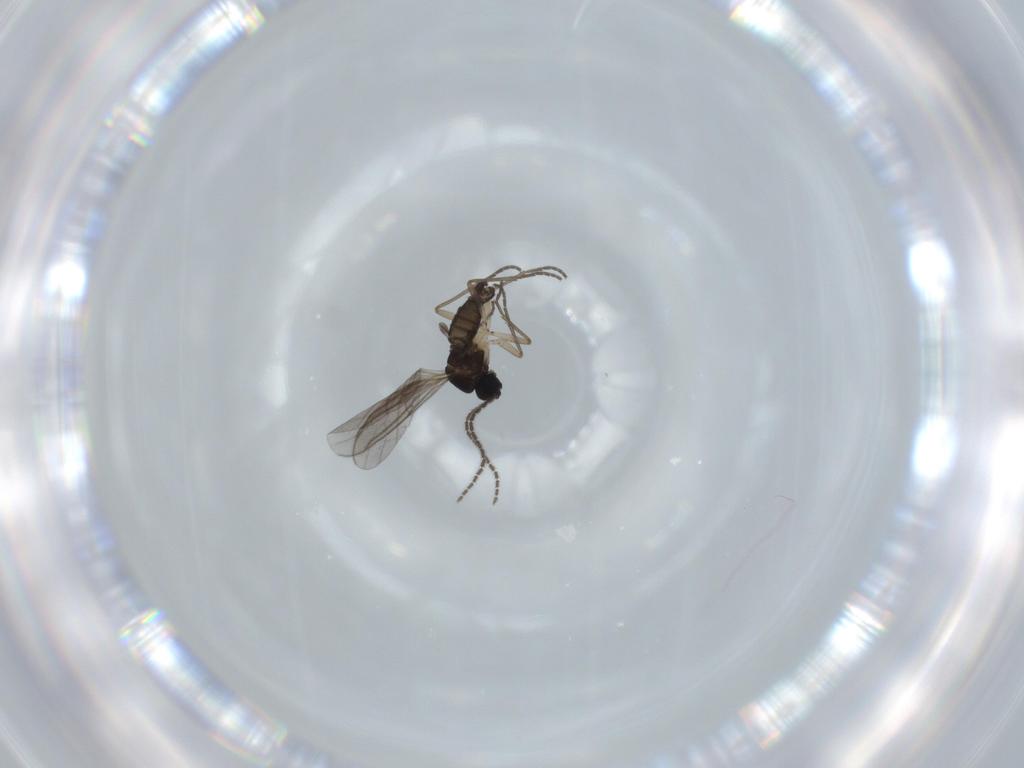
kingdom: Animalia
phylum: Arthropoda
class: Insecta
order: Diptera
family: Sciaridae
